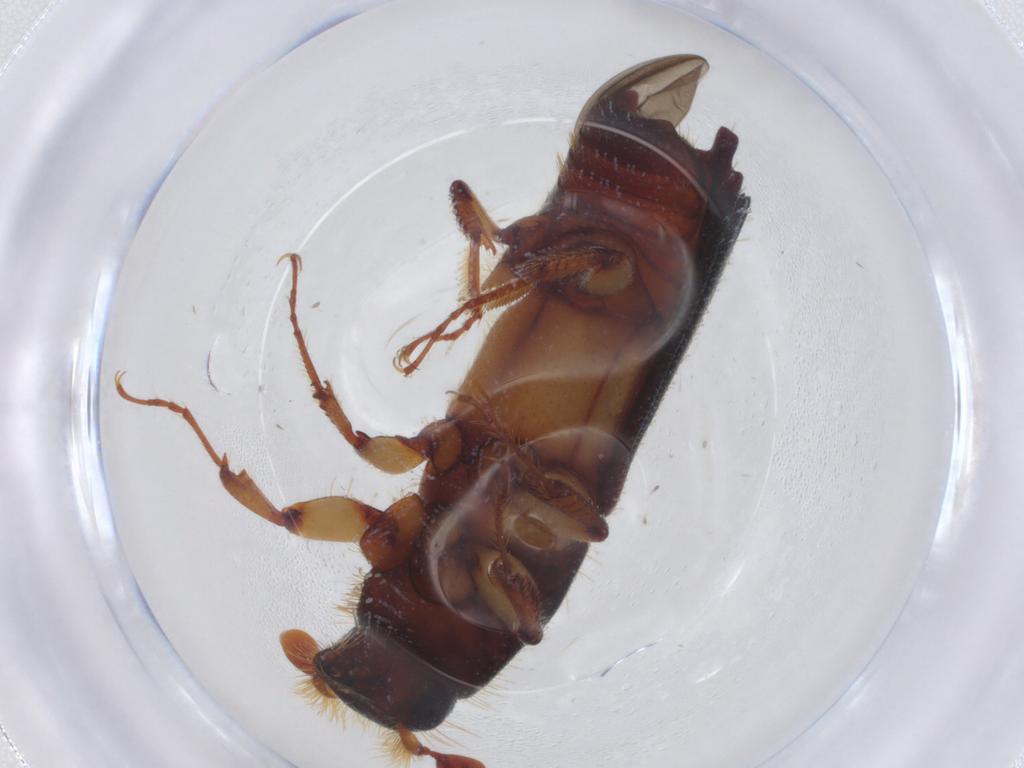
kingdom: Animalia
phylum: Arthropoda
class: Insecta
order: Coleoptera
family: Curculionidae
